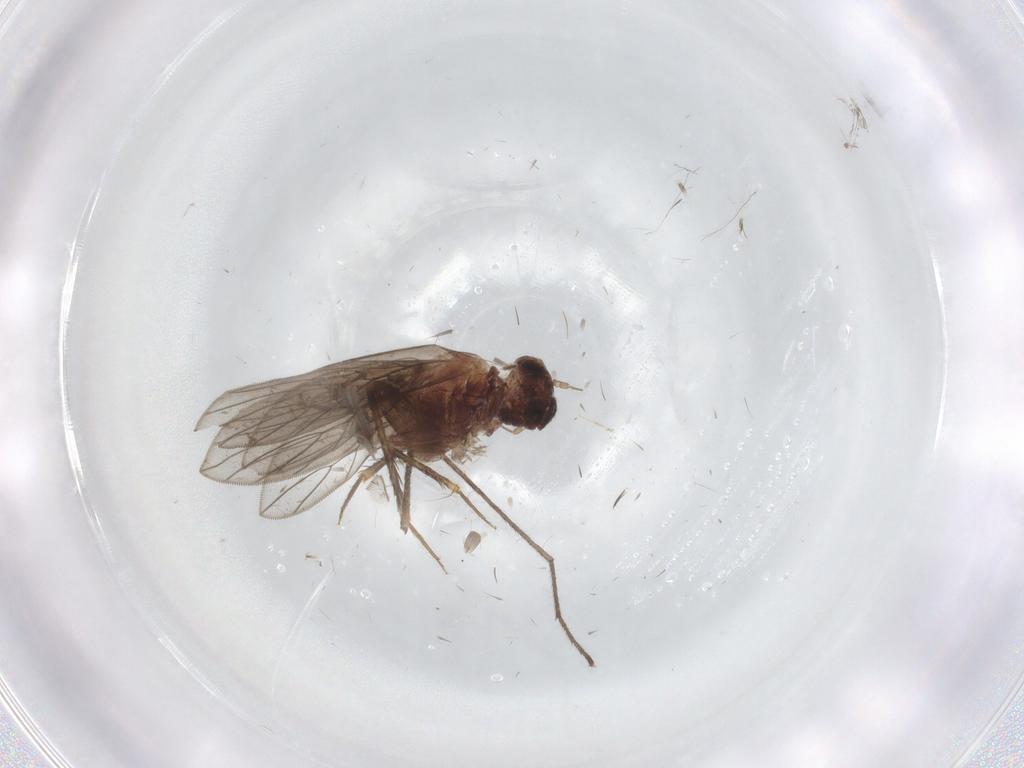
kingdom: Animalia
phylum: Arthropoda
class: Insecta
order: Psocodea
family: Lepidopsocidae
